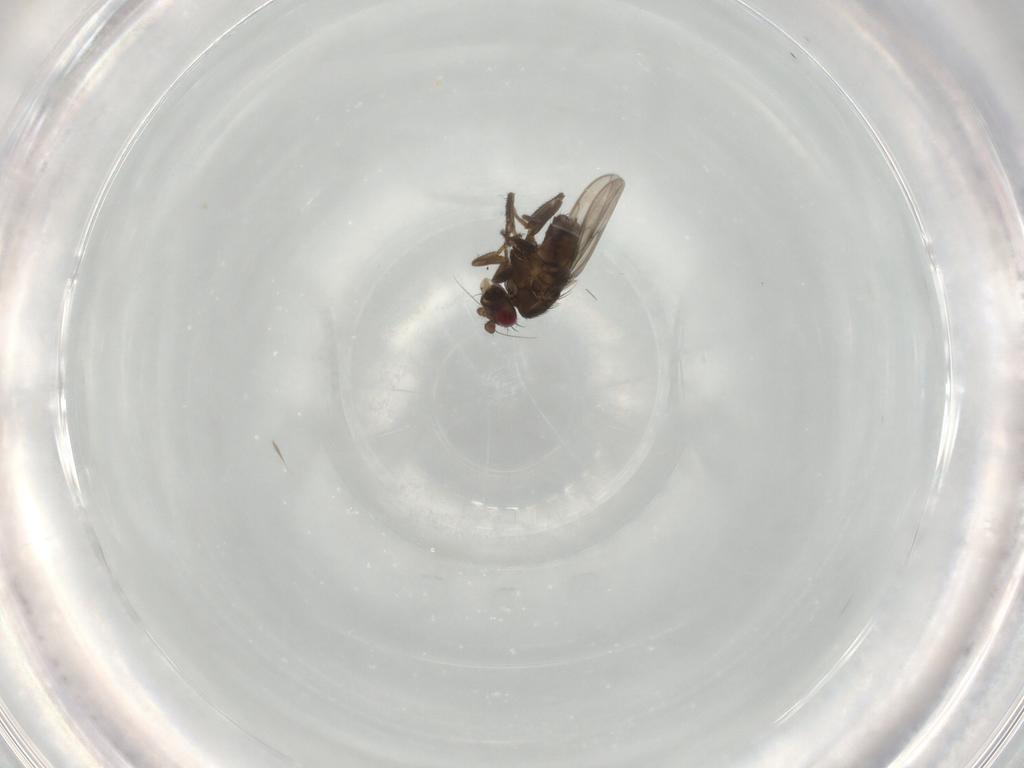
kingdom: Animalia
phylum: Arthropoda
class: Insecta
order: Diptera
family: Sphaeroceridae
